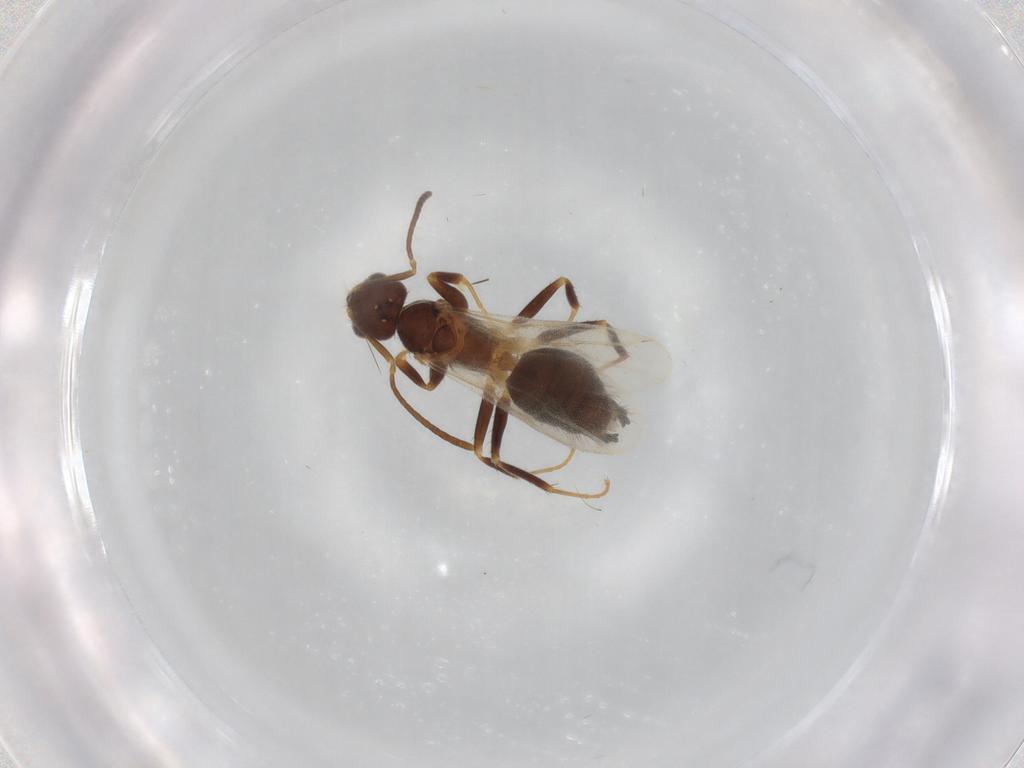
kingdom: Animalia
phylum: Arthropoda
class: Insecta
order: Hymenoptera
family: Formicidae
